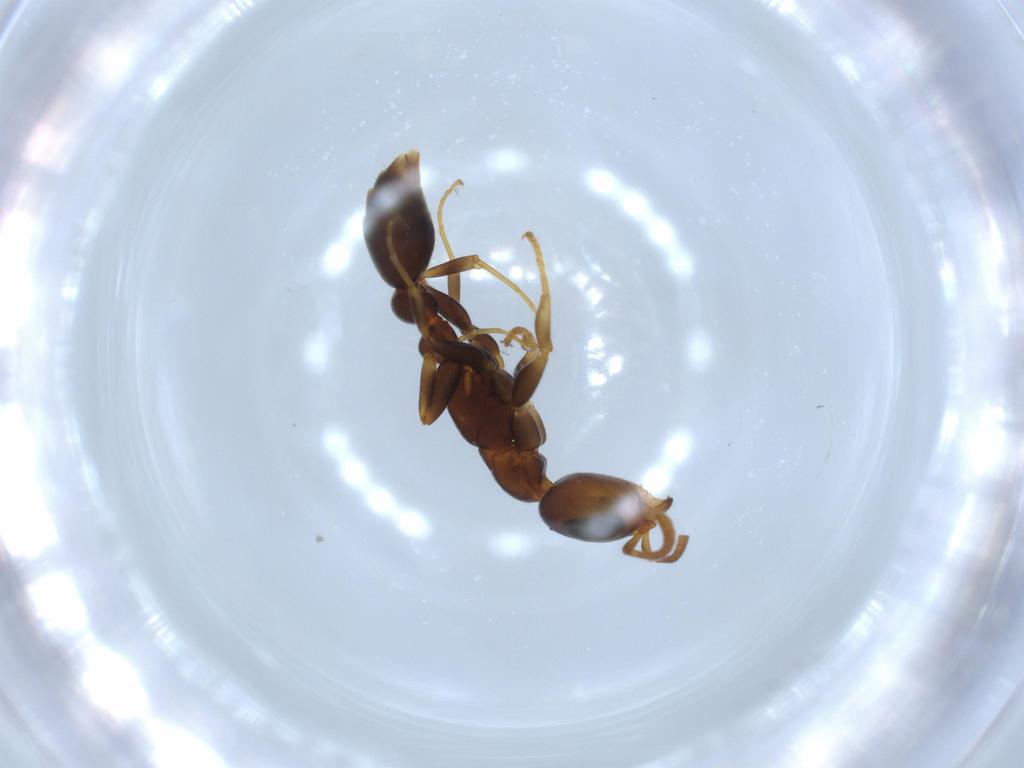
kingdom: Animalia
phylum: Arthropoda
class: Insecta
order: Hymenoptera
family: Formicidae
